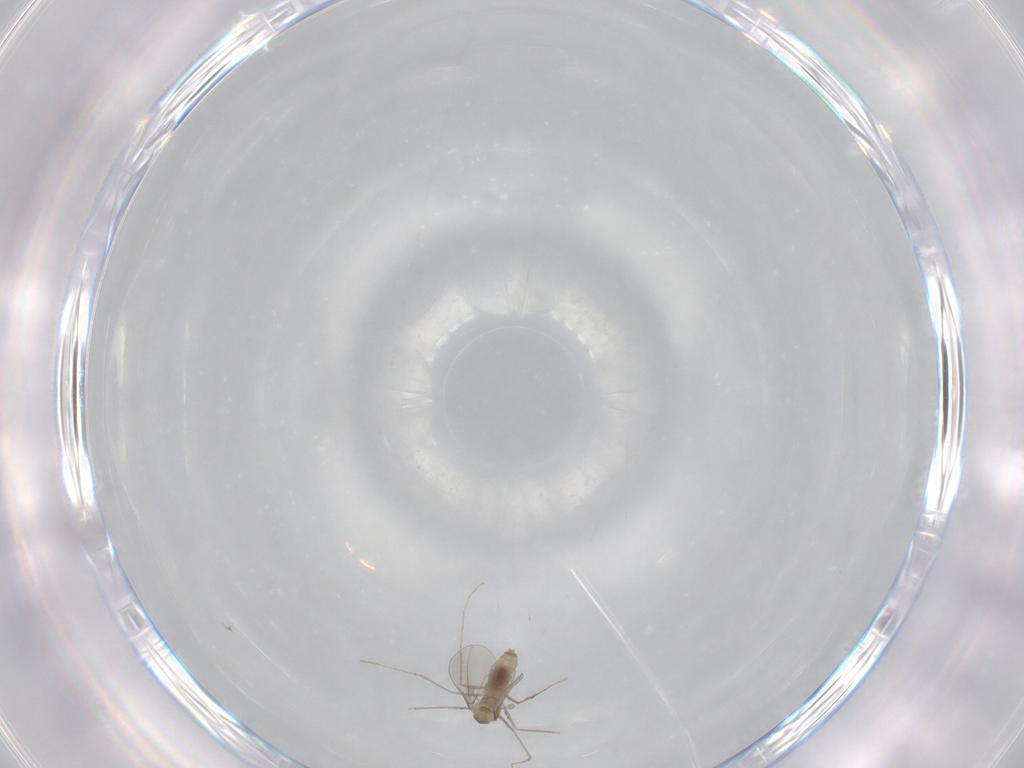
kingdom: Animalia
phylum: Arthropoda
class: Insecta
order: Diptera
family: Cecidomyiidae
